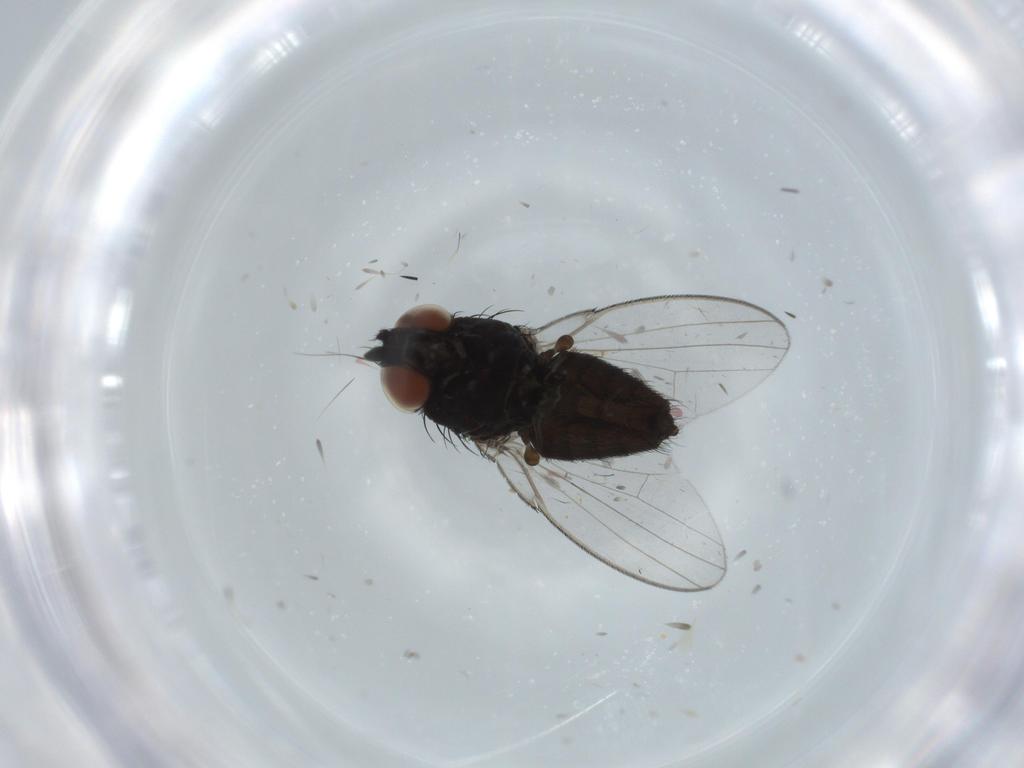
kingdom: Animalia
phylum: Arthropoda
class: Insecta
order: Diptera
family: Milichiidae
